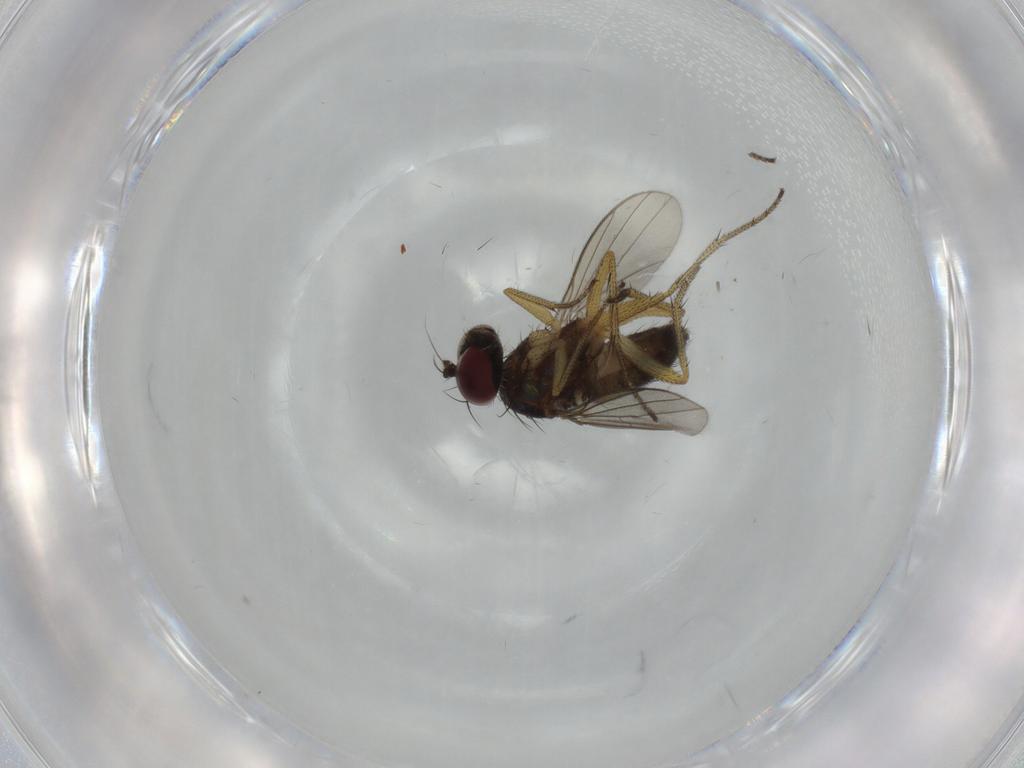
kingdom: Animalia
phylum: Arthropoda
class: Insecta
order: Diptera
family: Dolichopodidae
